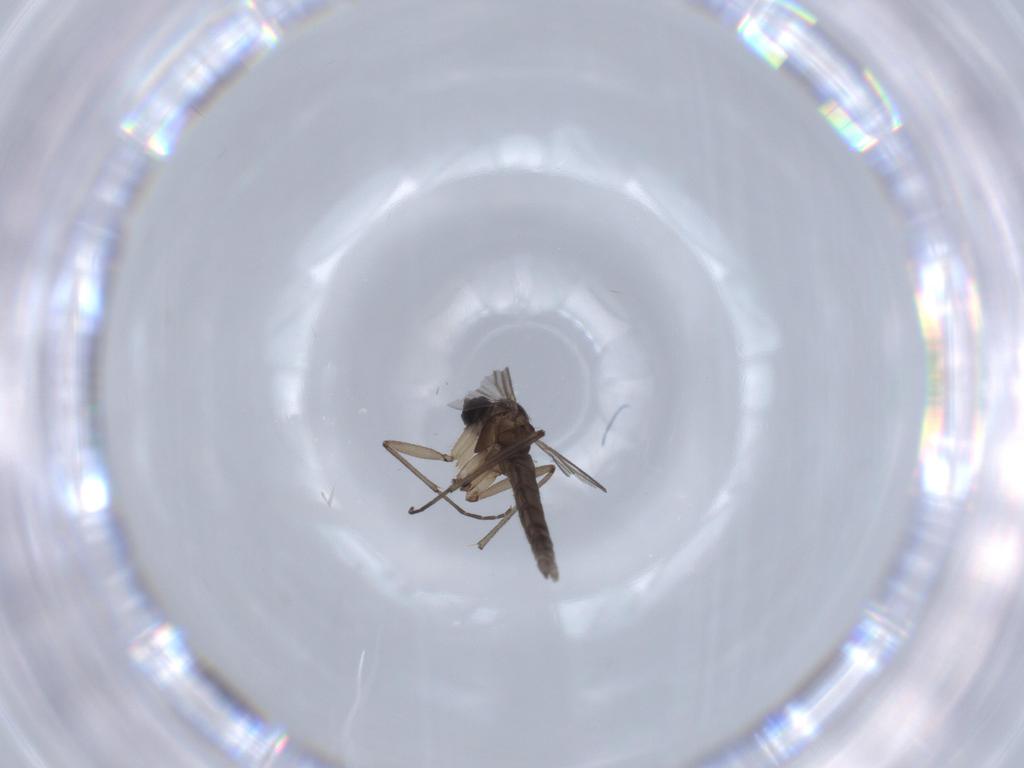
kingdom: Animalia
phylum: Arthropoda
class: Insecta
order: Diptera
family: Sciaridae
